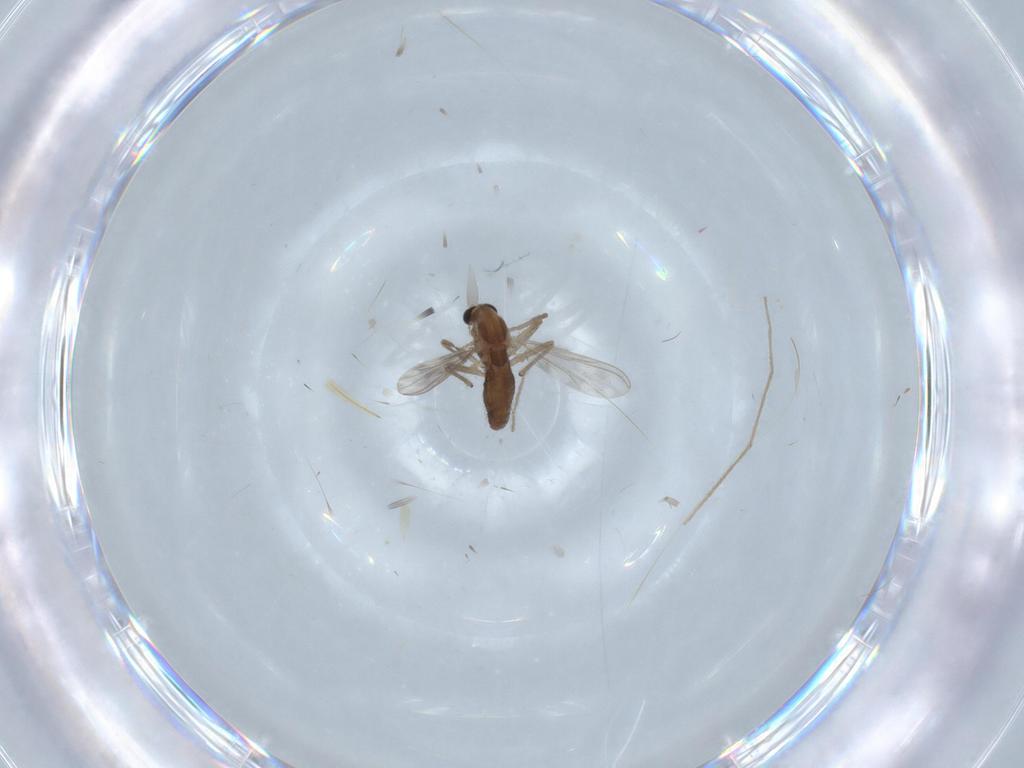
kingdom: Animalia
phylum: Arthropoda
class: Insecta
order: Diptera
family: Chironomidae
